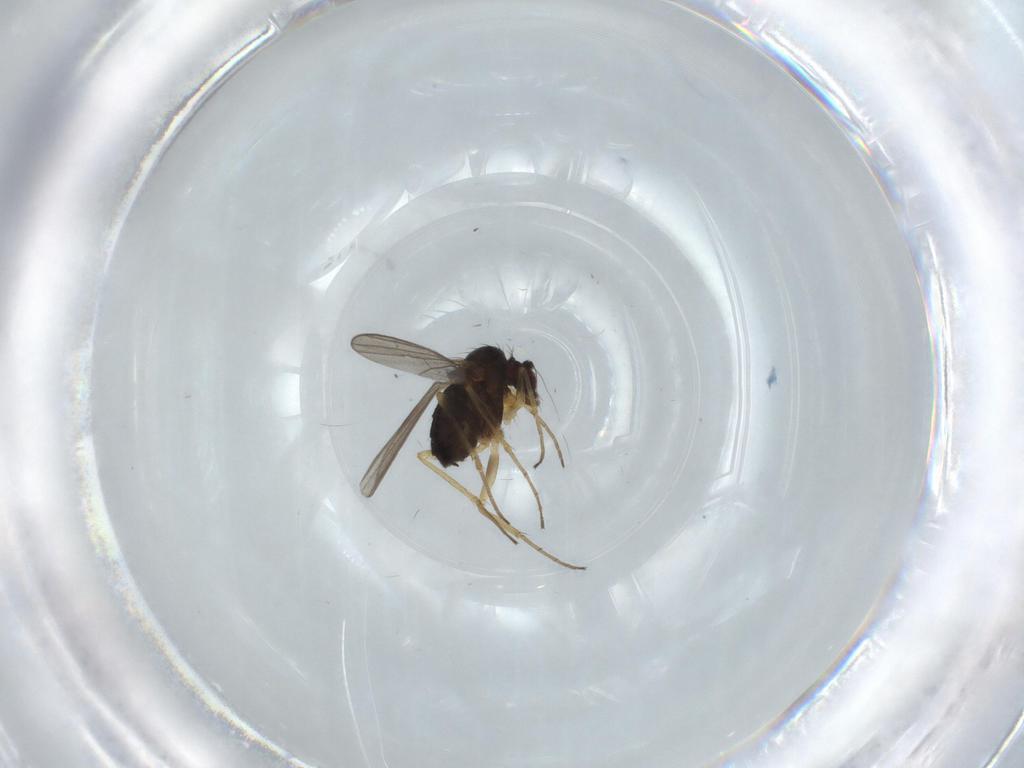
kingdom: Animalia
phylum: Arthropoda
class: Insecta
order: Diptera
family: Dolichopodidae
